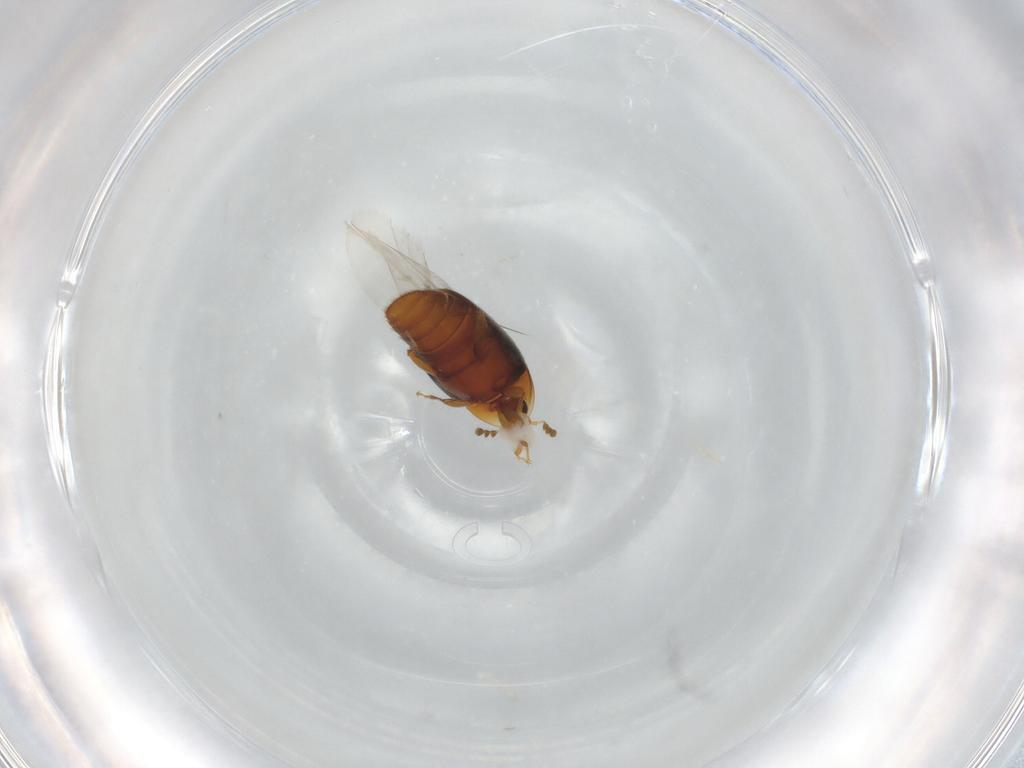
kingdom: Animalia
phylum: Arthropoda
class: Insecta
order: Coleoptera
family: Corylophidae
